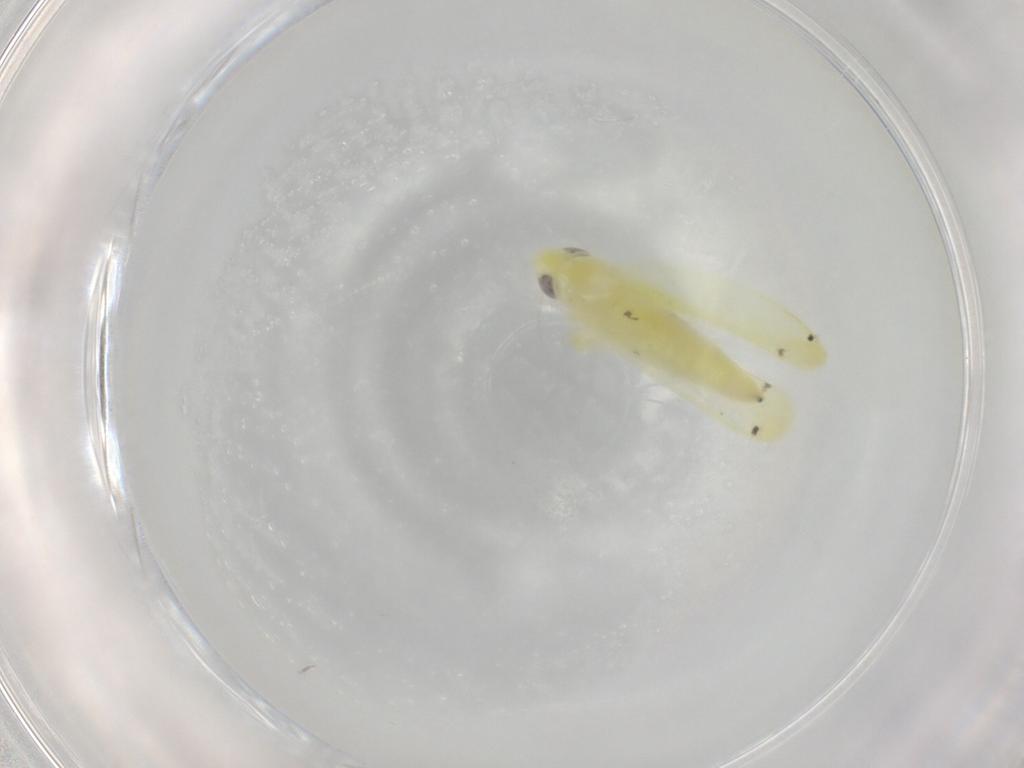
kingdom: Animalia
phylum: Arthropoda
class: Insecta
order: Hemiptera
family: Cicadellidae
